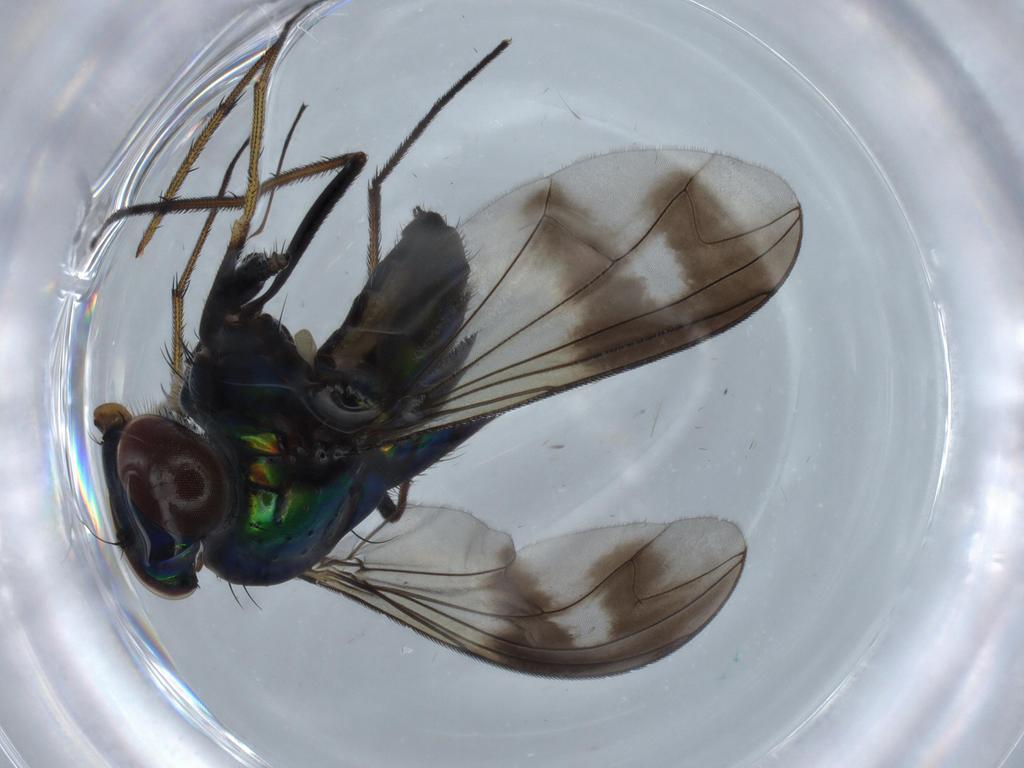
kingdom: Animalia
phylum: Arthropoda
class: Insecta
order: Diptera
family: Dolichopodidae
